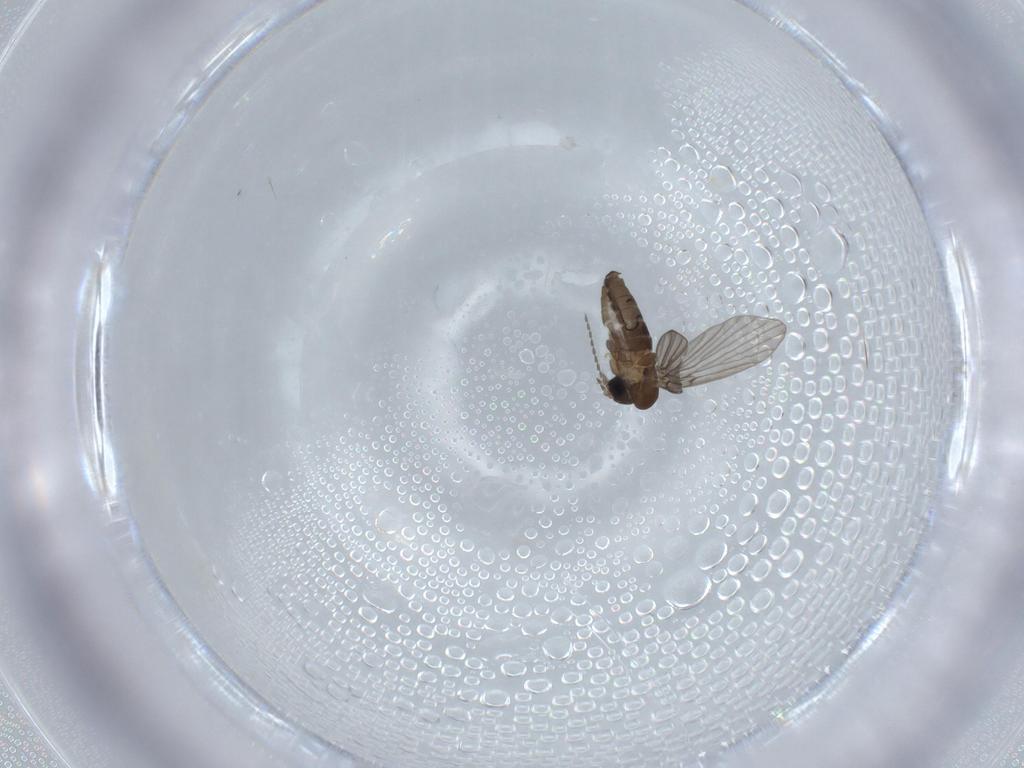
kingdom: Animalia
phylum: Arthropoda
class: Insecta
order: Diptera
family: Psychodidae
